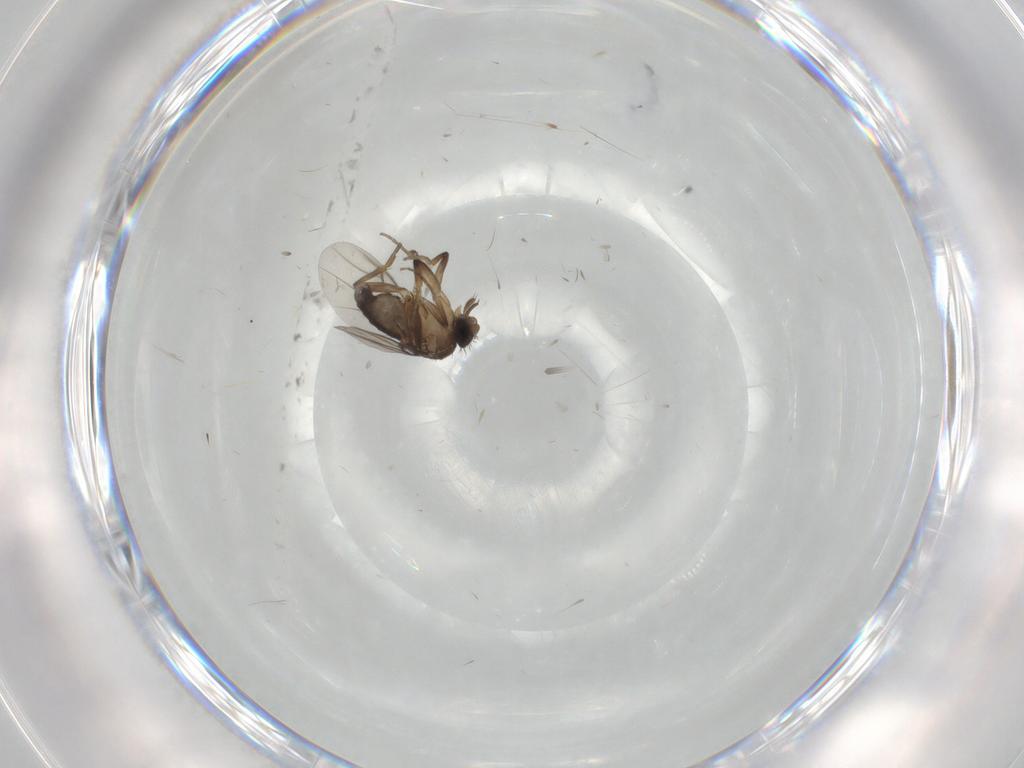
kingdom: Animalia
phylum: Arthropoda
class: Insecta
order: Diptera
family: Phoridae
